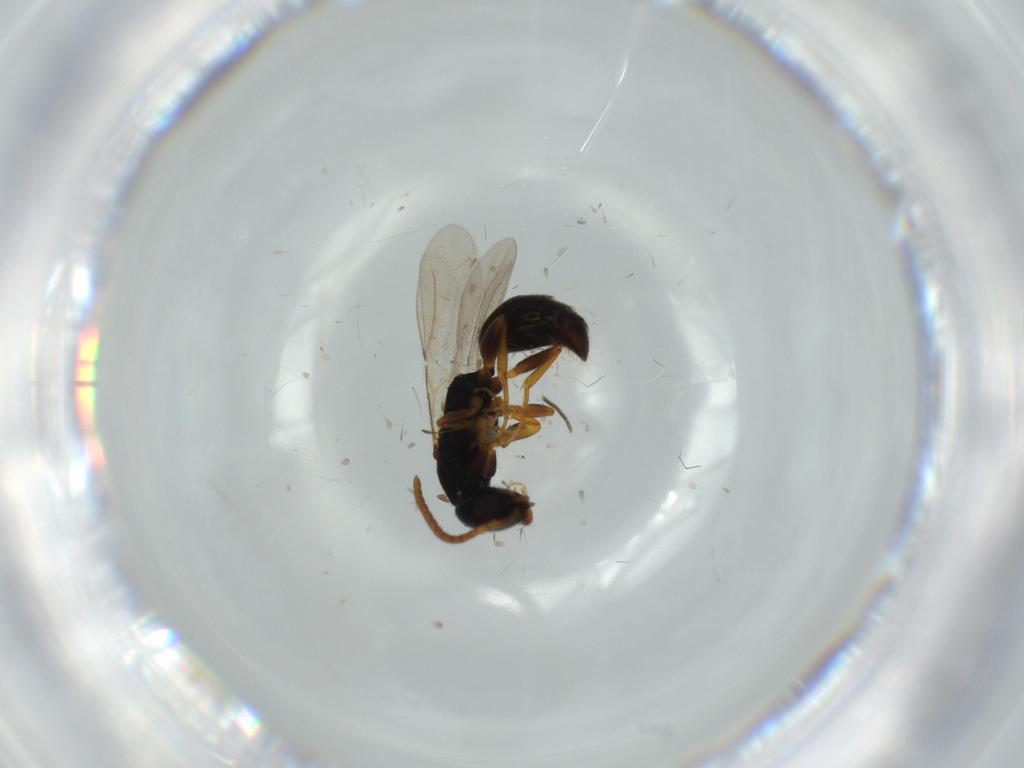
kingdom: Animalia
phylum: Arthropoda
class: Insecta
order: Hymenoptera
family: Bethylidae
